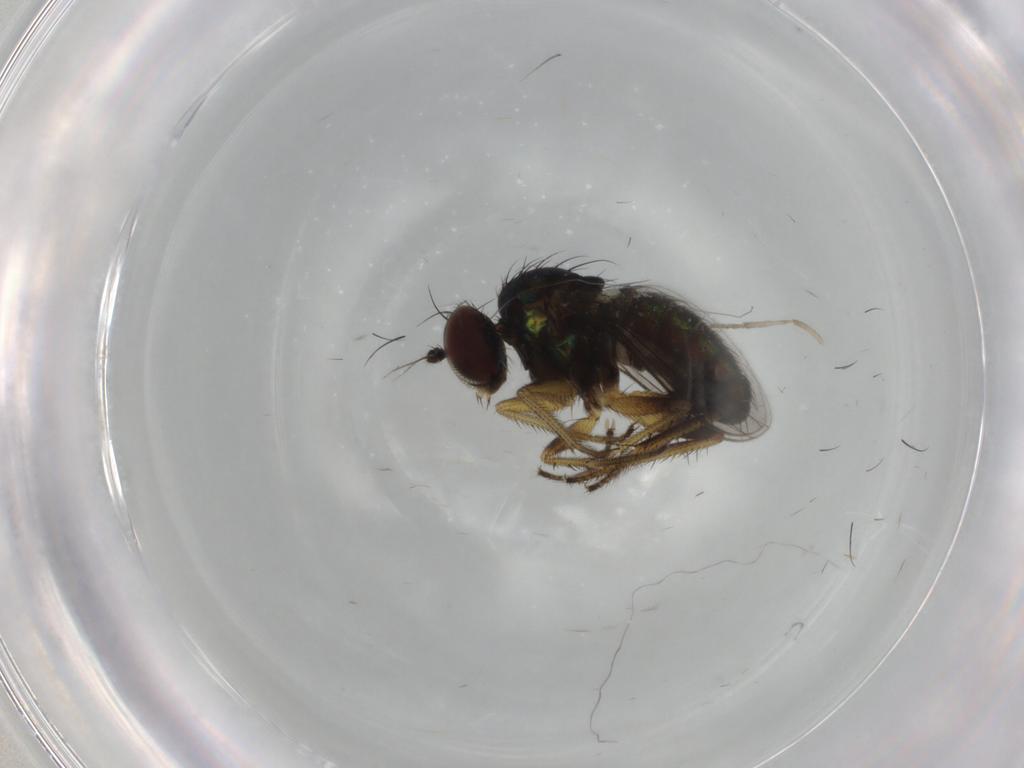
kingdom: Animalia
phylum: Arthropoda
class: Insecta
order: Diptera
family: Dolichopodidae
